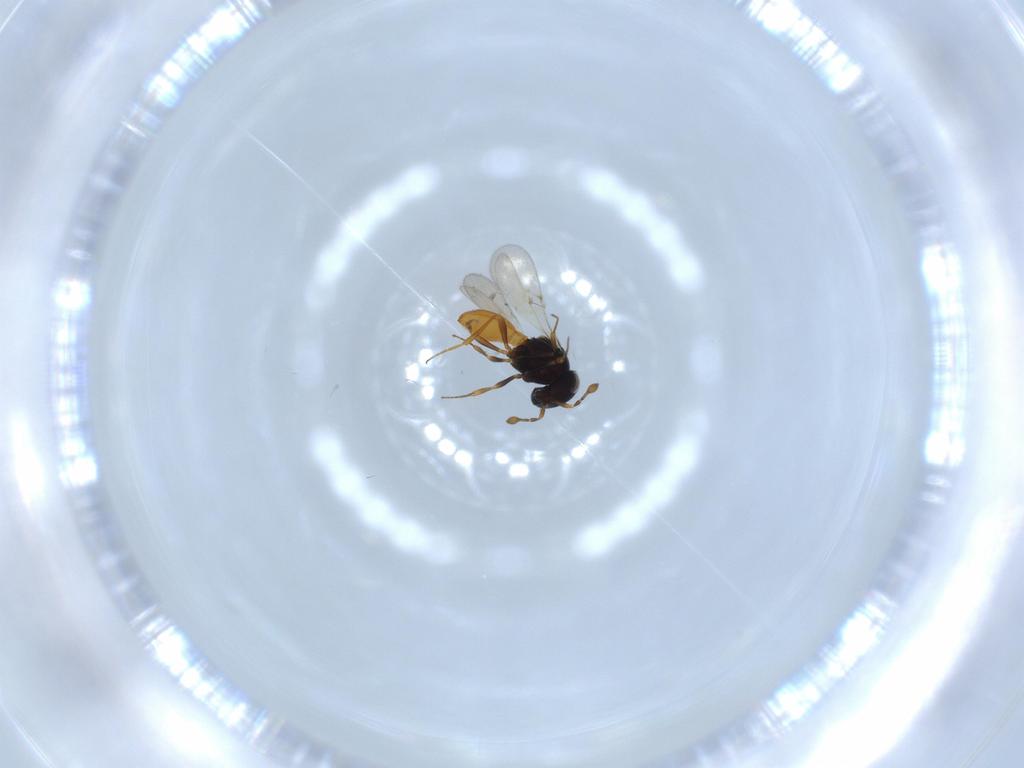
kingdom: Animalia
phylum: Arthropoda
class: Insecta
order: Hymenoptera
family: Scelionidae
